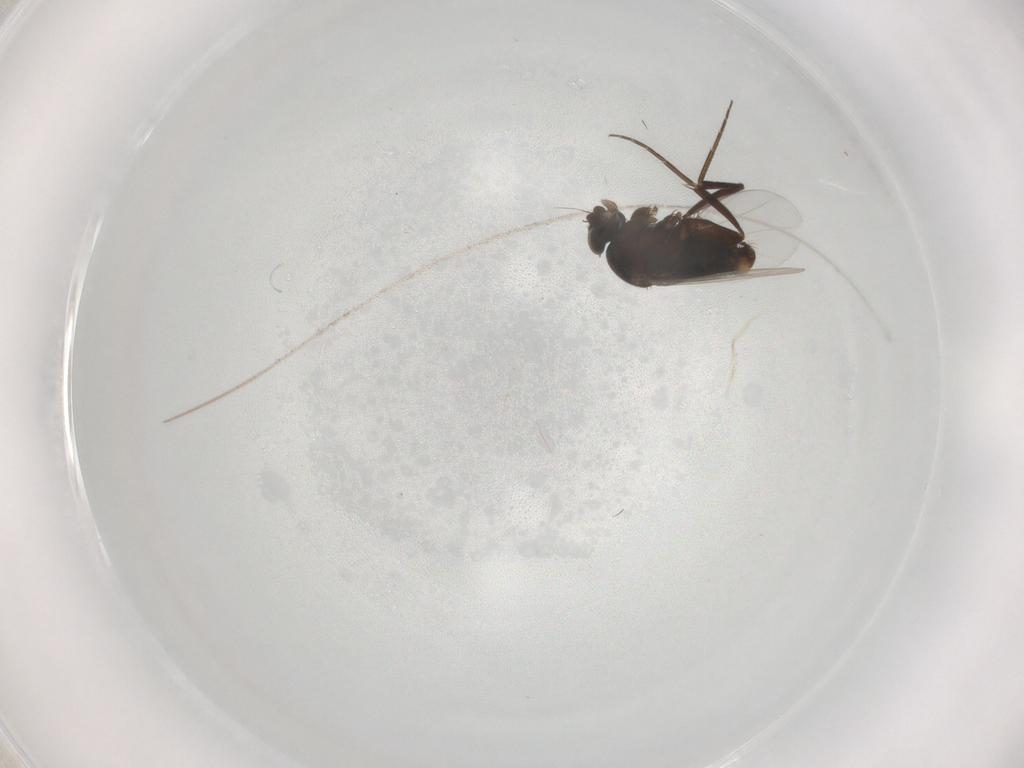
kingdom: Animalia
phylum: Arthropoda
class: Insecta
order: Diptera
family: Phoridae
